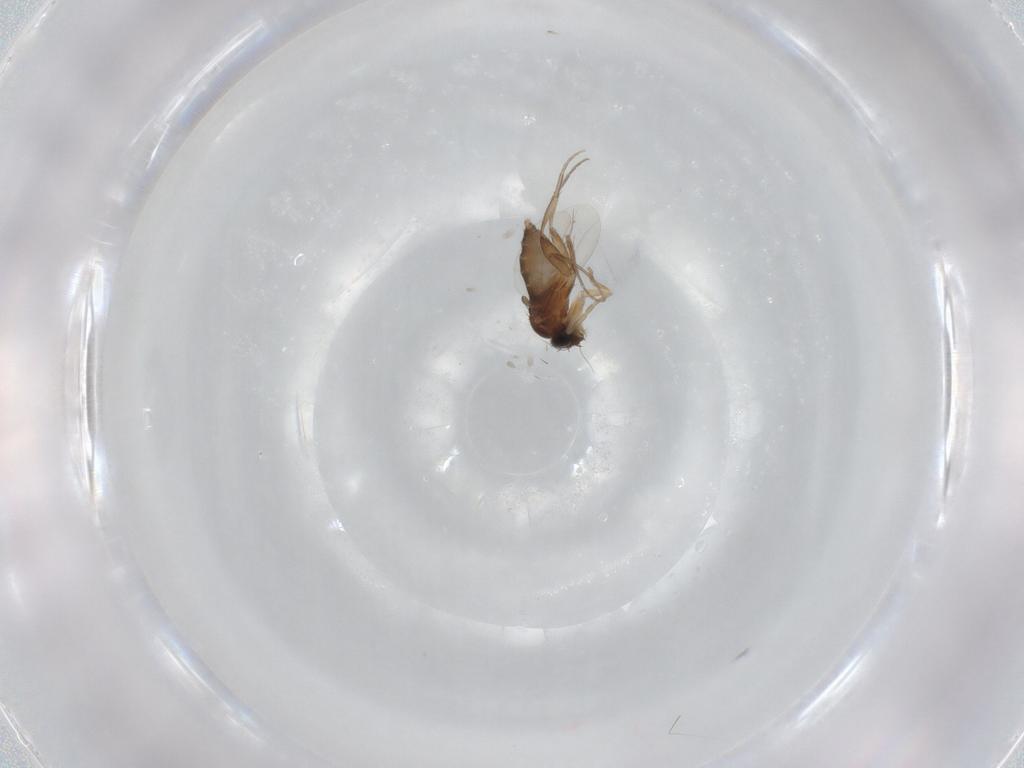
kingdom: Animalia
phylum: Arthropoda
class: Insecta
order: Diptera
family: Phoridae
